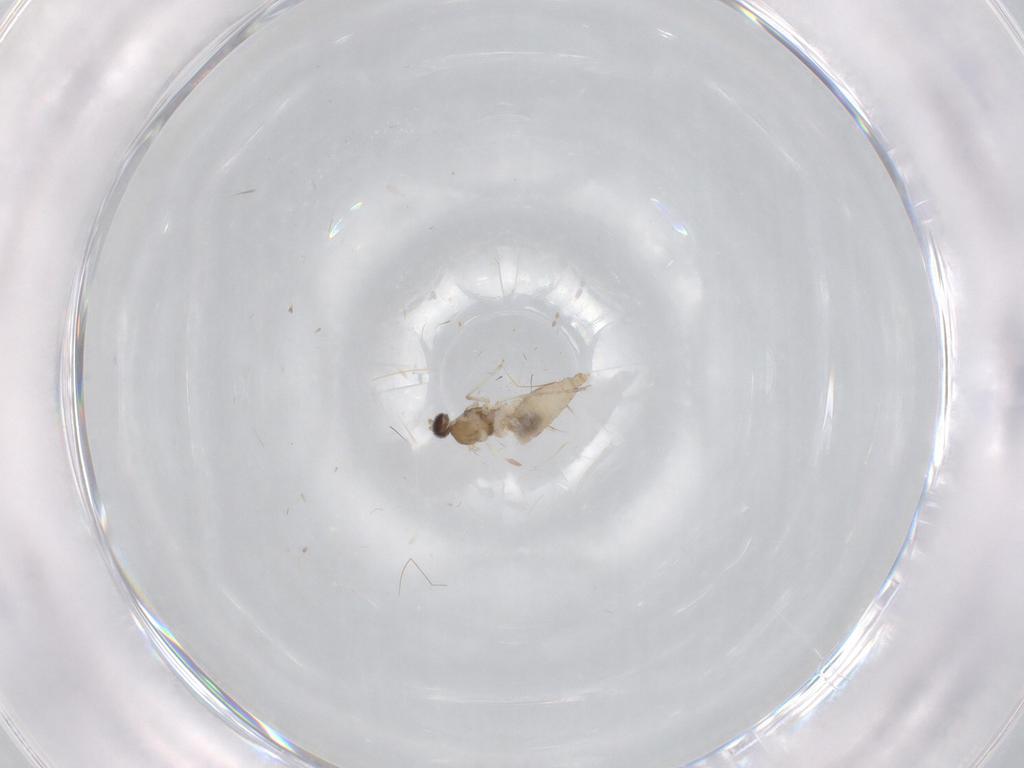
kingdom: Animalia
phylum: Arthropoda
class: Insecta
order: Diptera
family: Cecidomyiidae
